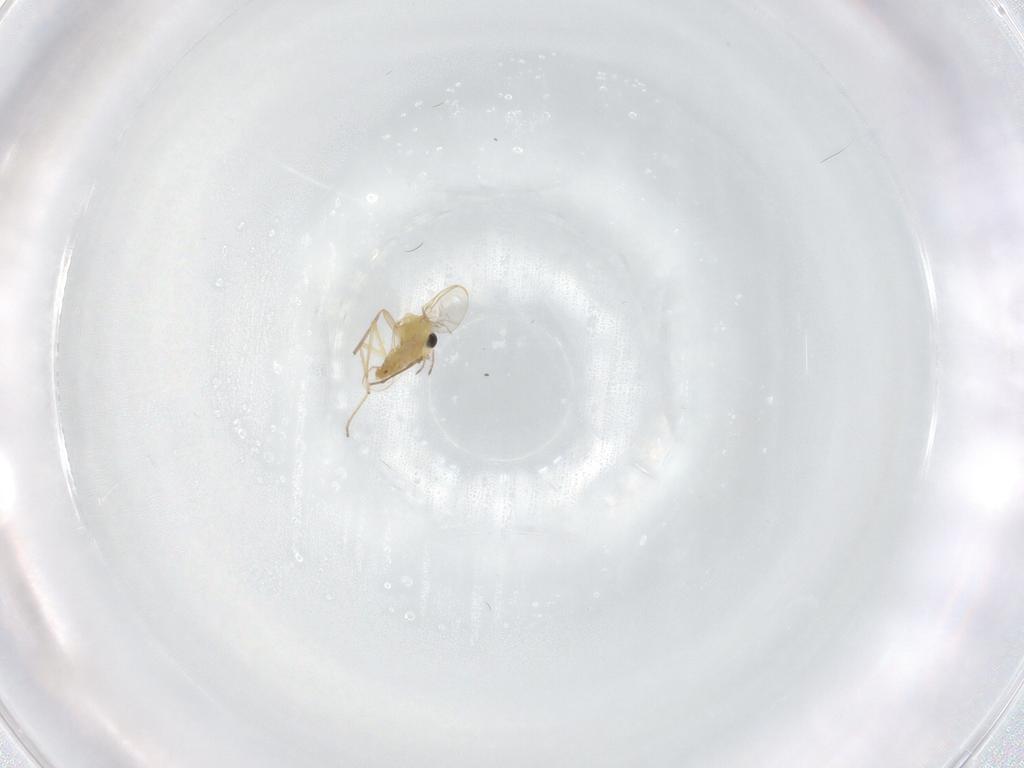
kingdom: Animalia
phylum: Arthropoda
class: Insecta
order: Diptera
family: Chironomidae
